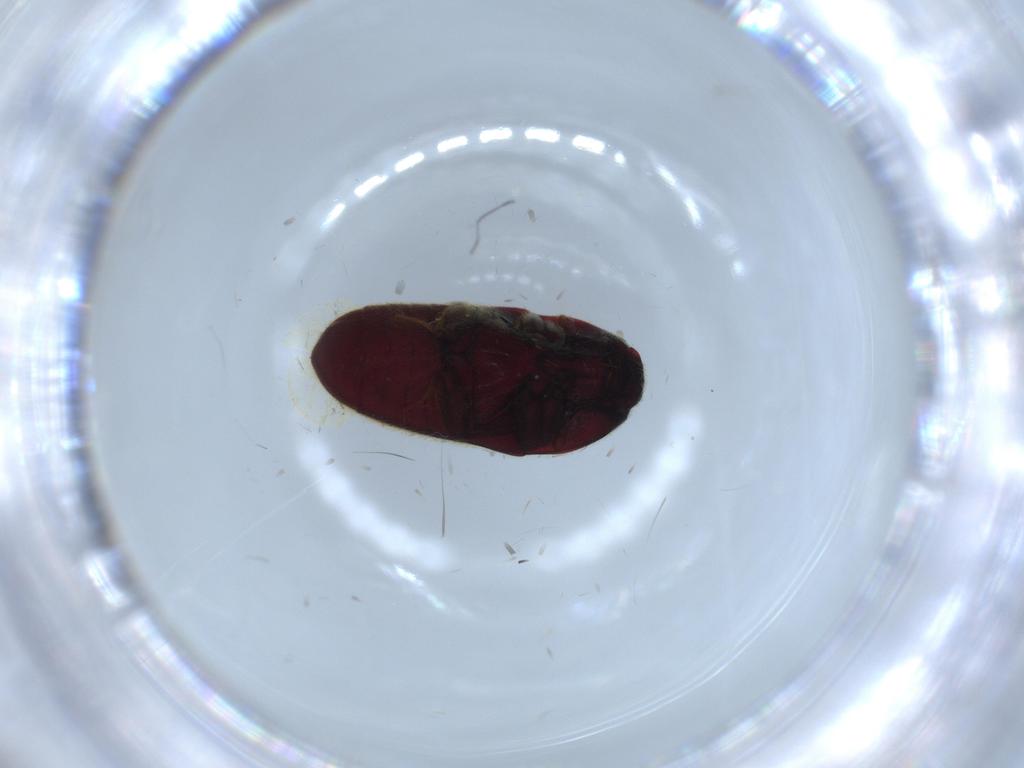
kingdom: Animalia
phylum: Arthropoda
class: Insecta
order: Coleoptera
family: Throscidae
